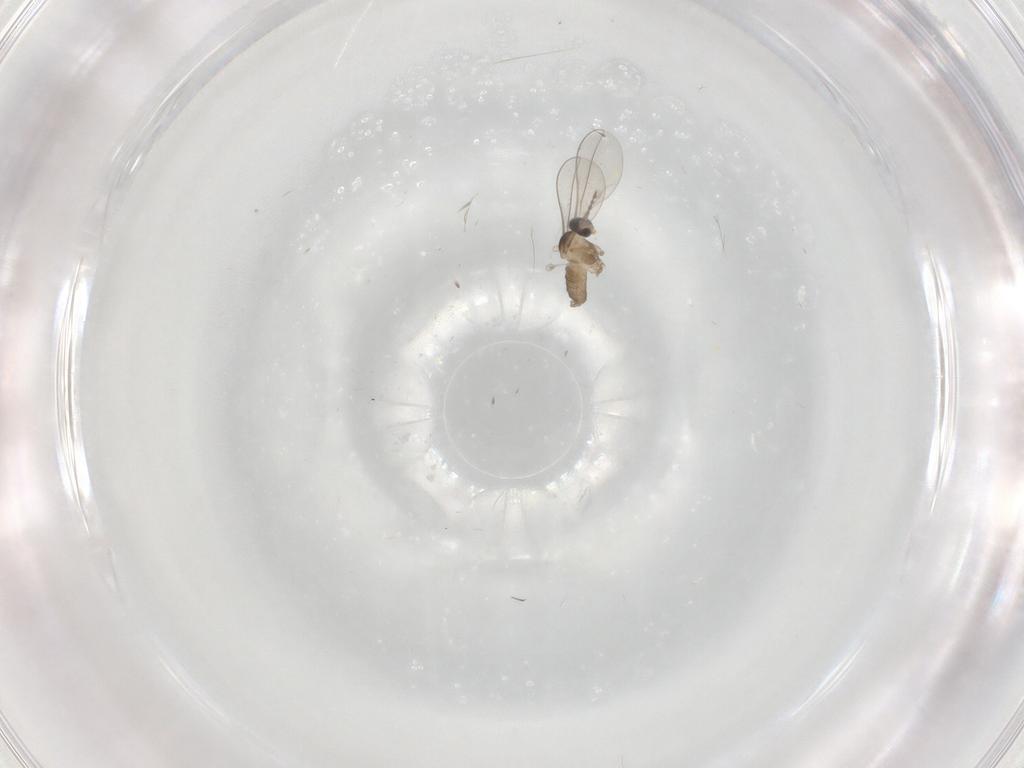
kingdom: Animalia
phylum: Arthropoda
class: Insecta
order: Diptera
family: Cecidomyiidae
